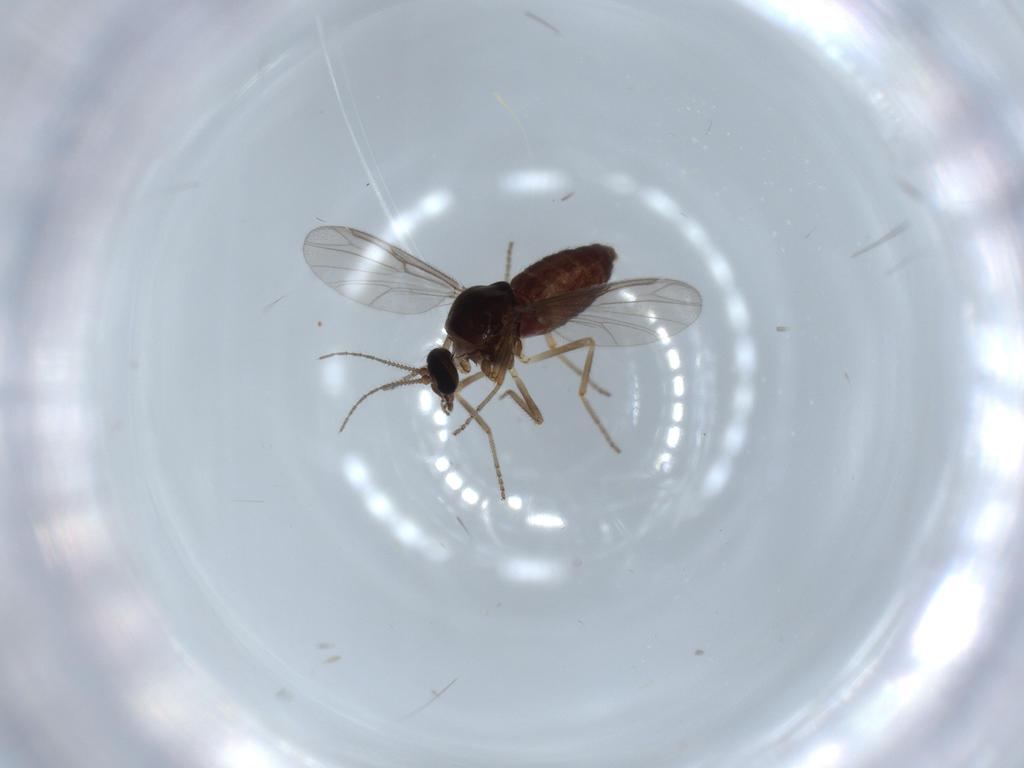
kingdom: Animalia
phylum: Arthropoda
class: Insecta
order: Diptera
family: Ceratopogonidae
